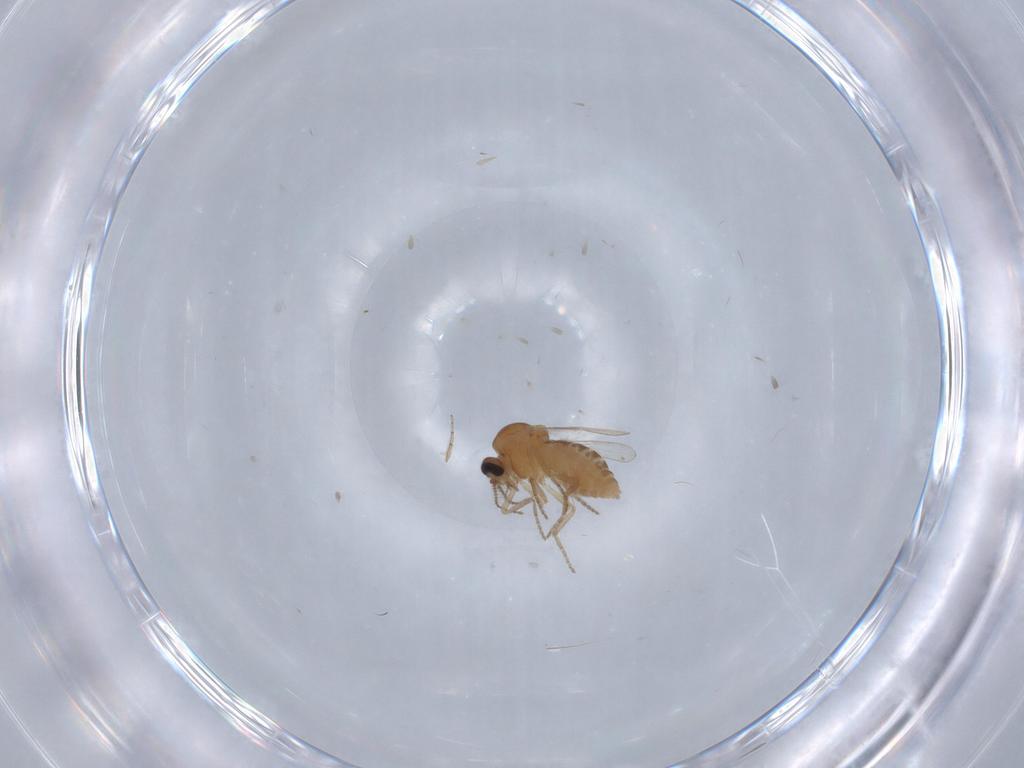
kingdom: Animalia
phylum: Arthropoda
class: Insecta
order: Diptera
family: Ceratopogonidae
